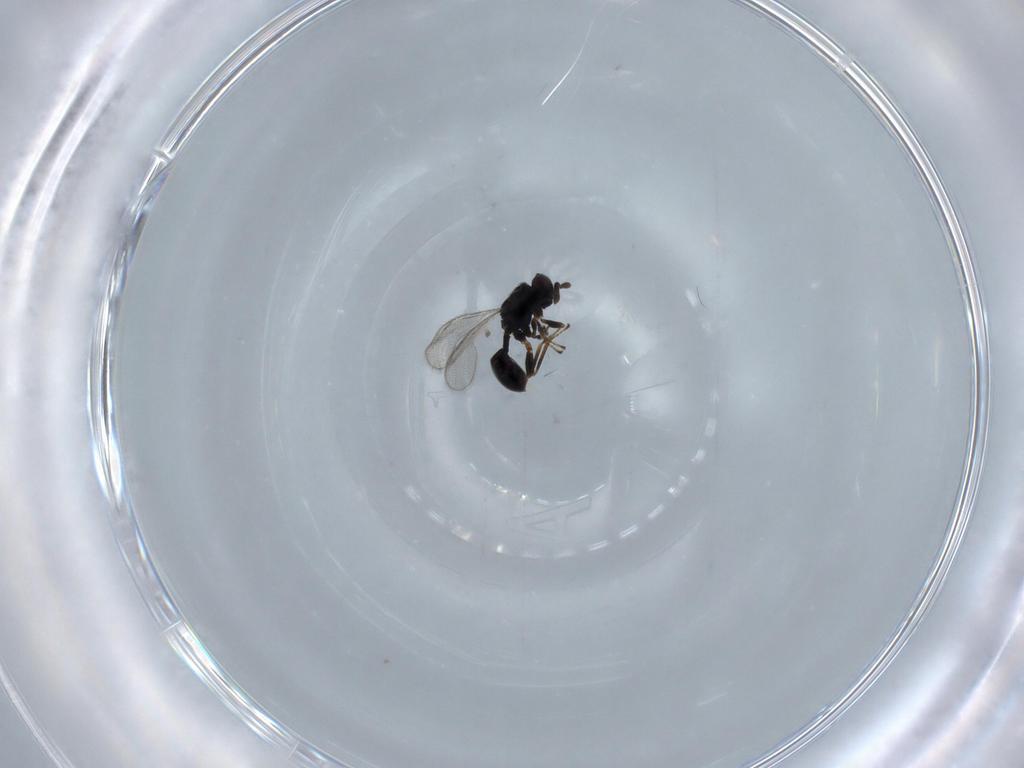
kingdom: Animalia
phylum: Arthropoda
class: Insecta
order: Hymenoptera
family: Torymidae
